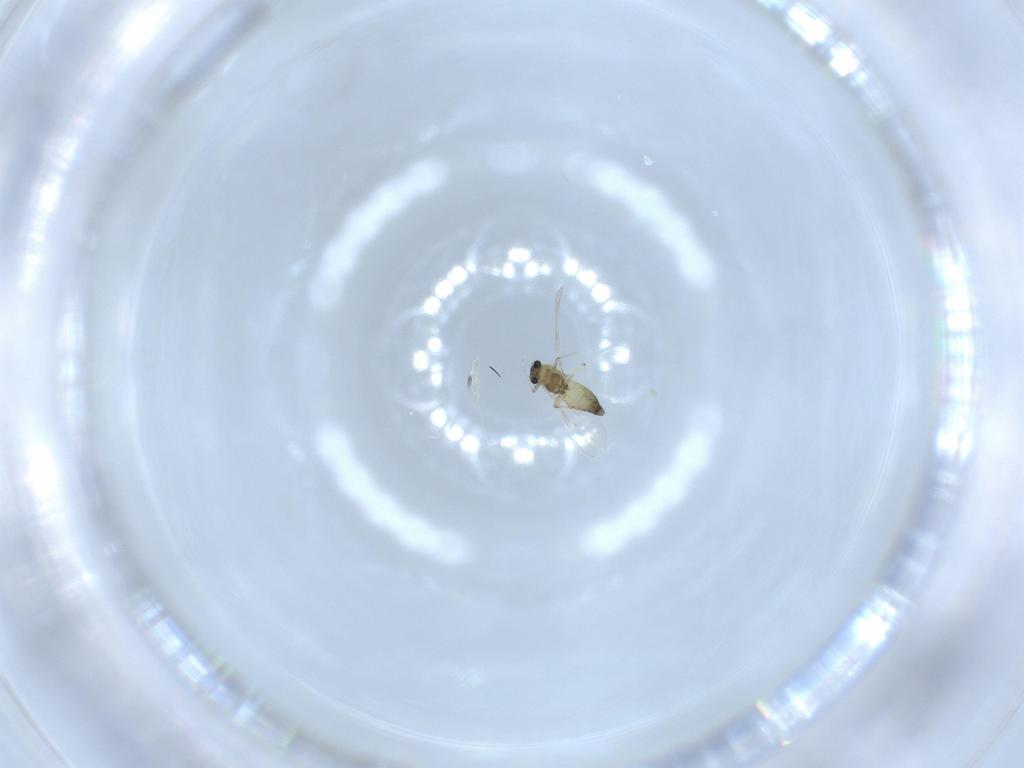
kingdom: Animalia
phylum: Arthropoda
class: Insecta
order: Diptera
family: Chironomidae
